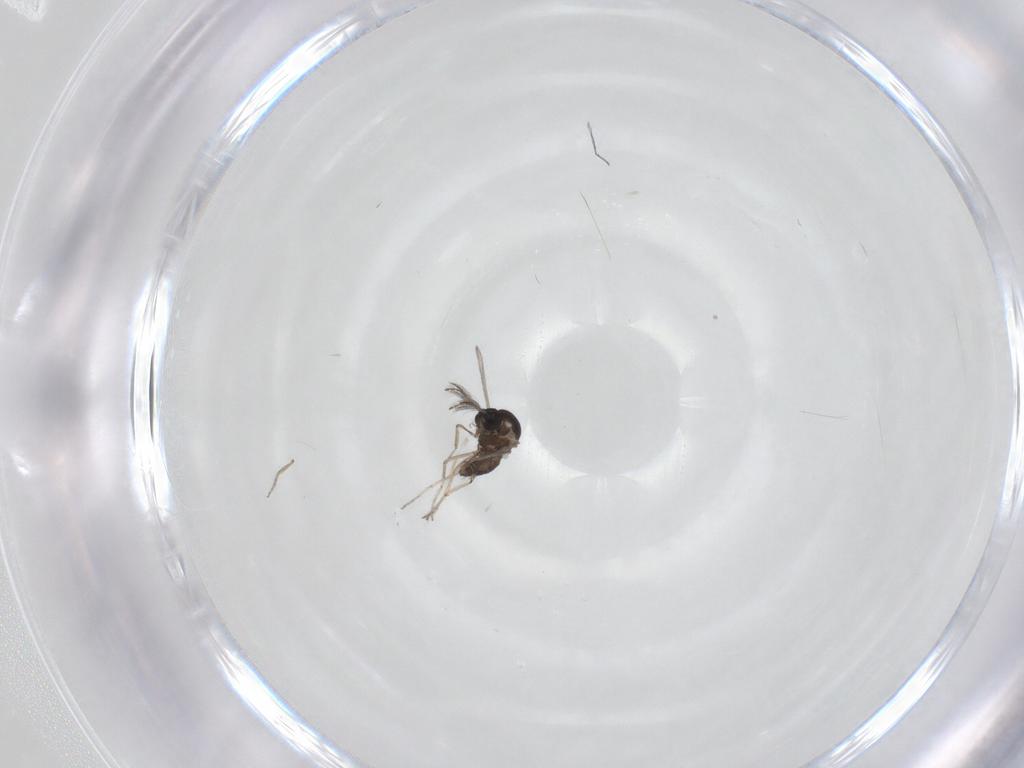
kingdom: Animalia
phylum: Arthropoda
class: Insecta
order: Diptera
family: Ceratopogonidae
